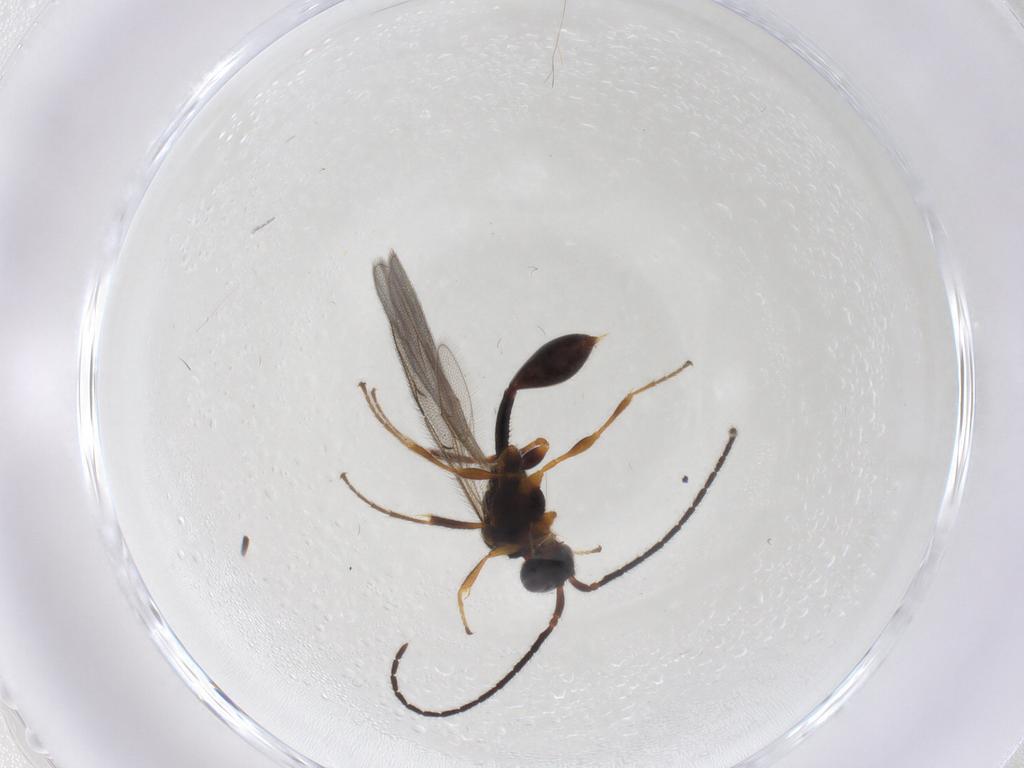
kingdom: Animalia
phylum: Arthropoda
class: Insecta
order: Hymenoptera
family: Diapriidae
